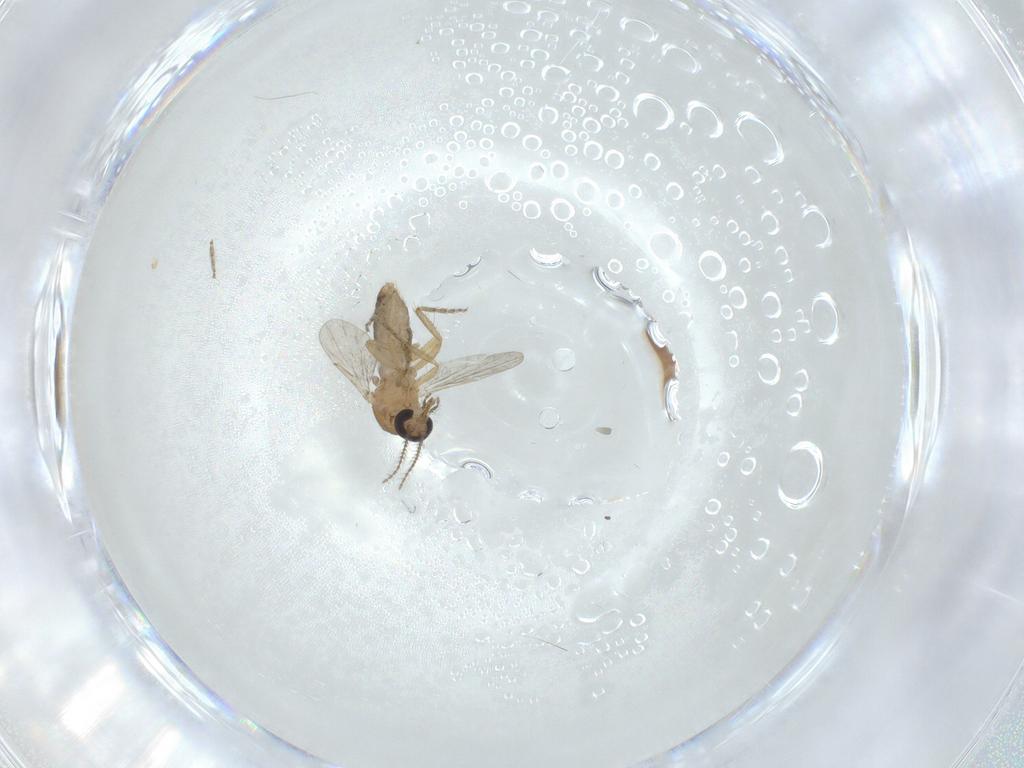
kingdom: Animalia
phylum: Arthropoda
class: Insecta
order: Diptera
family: Ceratopogonidae
